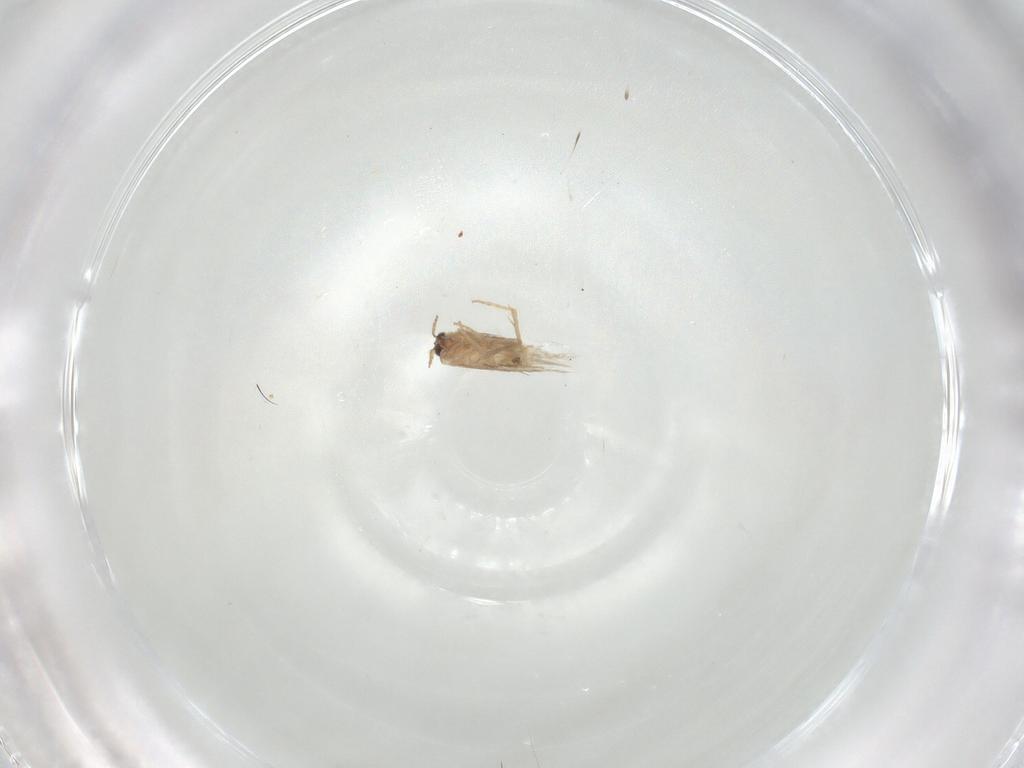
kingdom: Animalia
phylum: Arthropoda
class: Insecta
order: Lepidoptera
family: Nepticulidae
